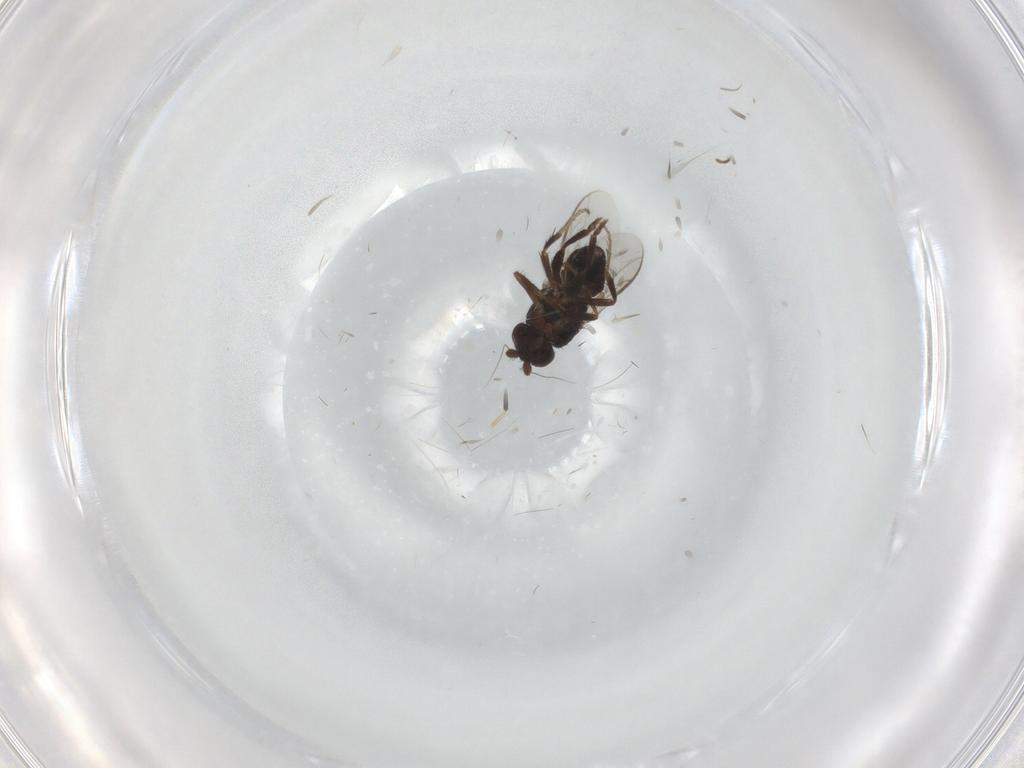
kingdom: Animalia
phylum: Arthropoda
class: Insecta
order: Diptera
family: Sphaeroceridae
